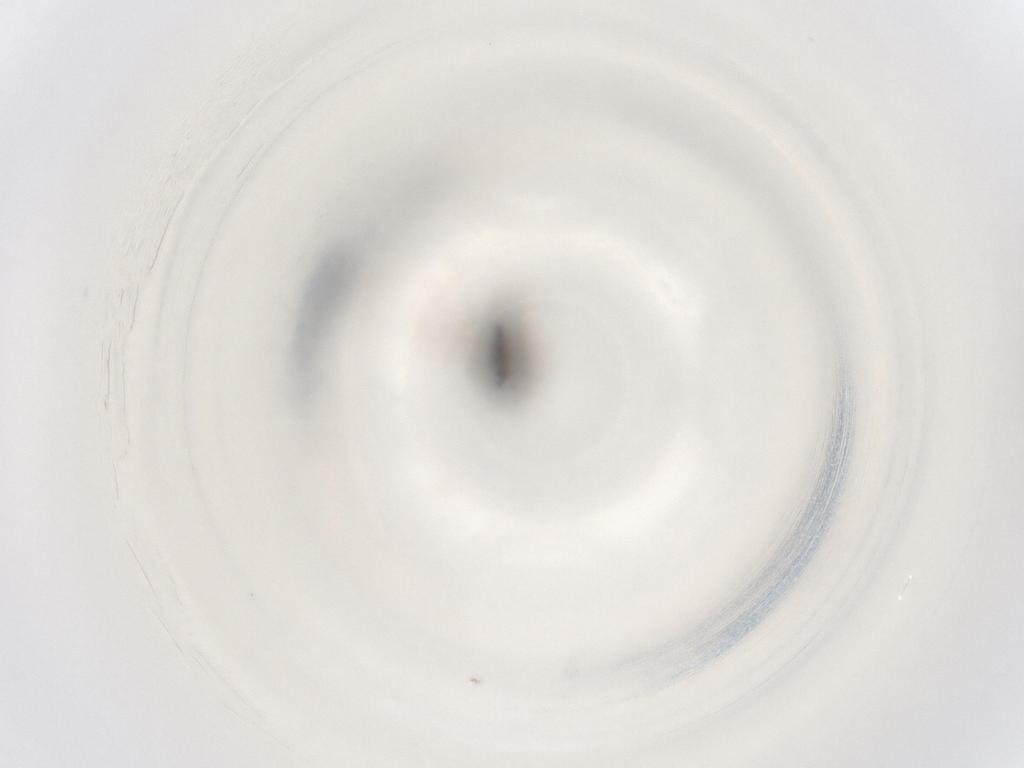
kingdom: Animalia
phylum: Arthropoda
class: Insecta
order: Hymenoptera
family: Encyrtidae
